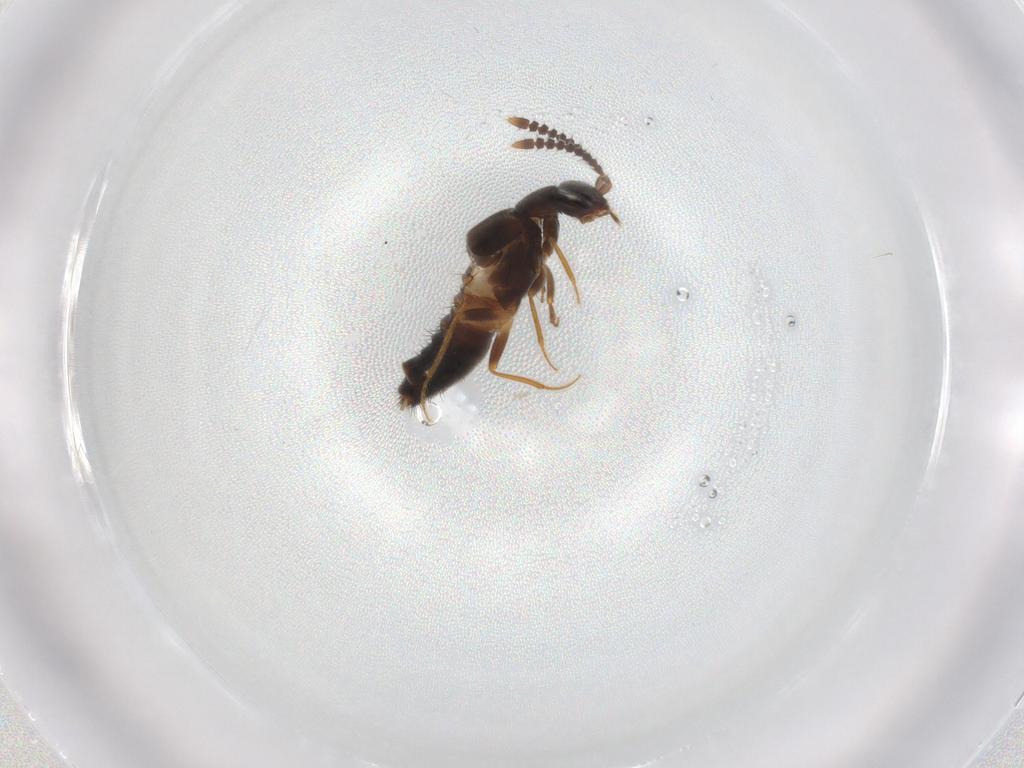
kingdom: Animalia
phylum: Arthropoda
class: Insecta
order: Coleoptera
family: Staphylinidae
